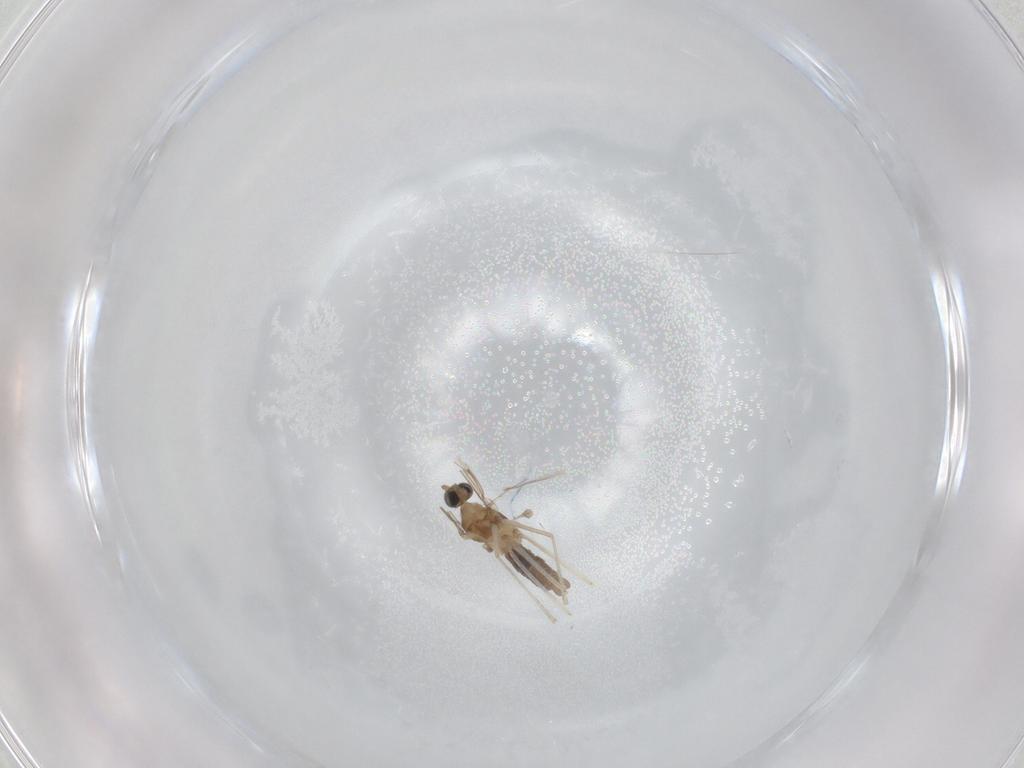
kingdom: Animalia
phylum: Arthropoda
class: Insecta
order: Diptera
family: Cecidomyiidae
